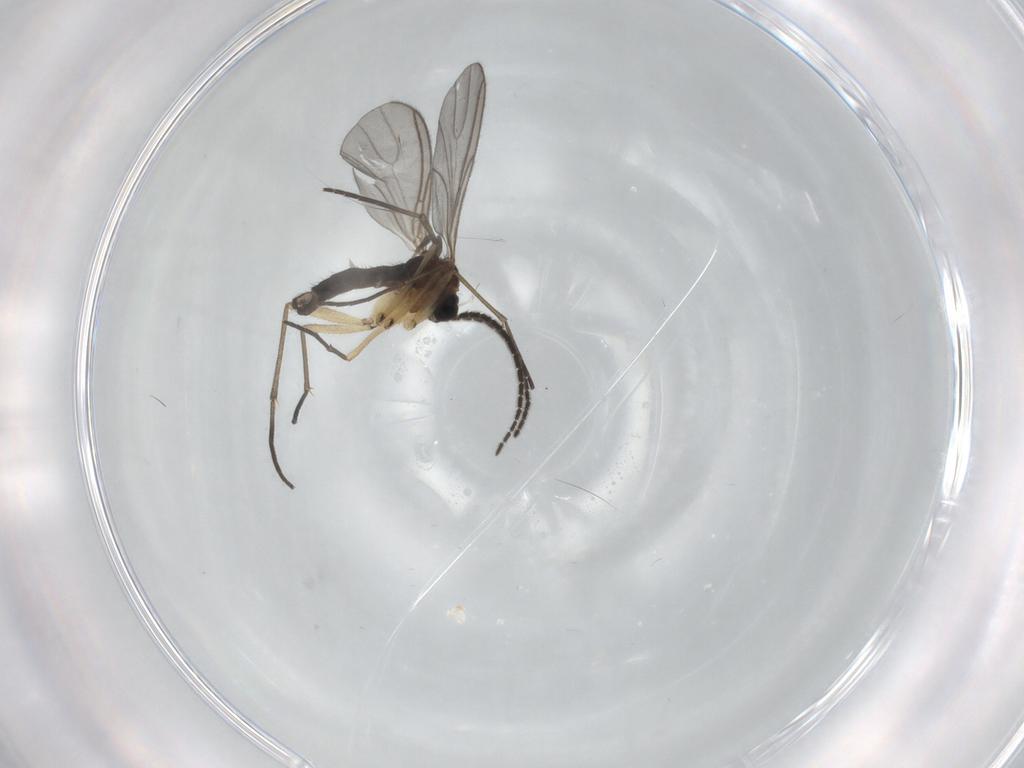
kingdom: Animalia
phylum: Arthropoda
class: Insecta
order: Diptera
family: Sciaridae
